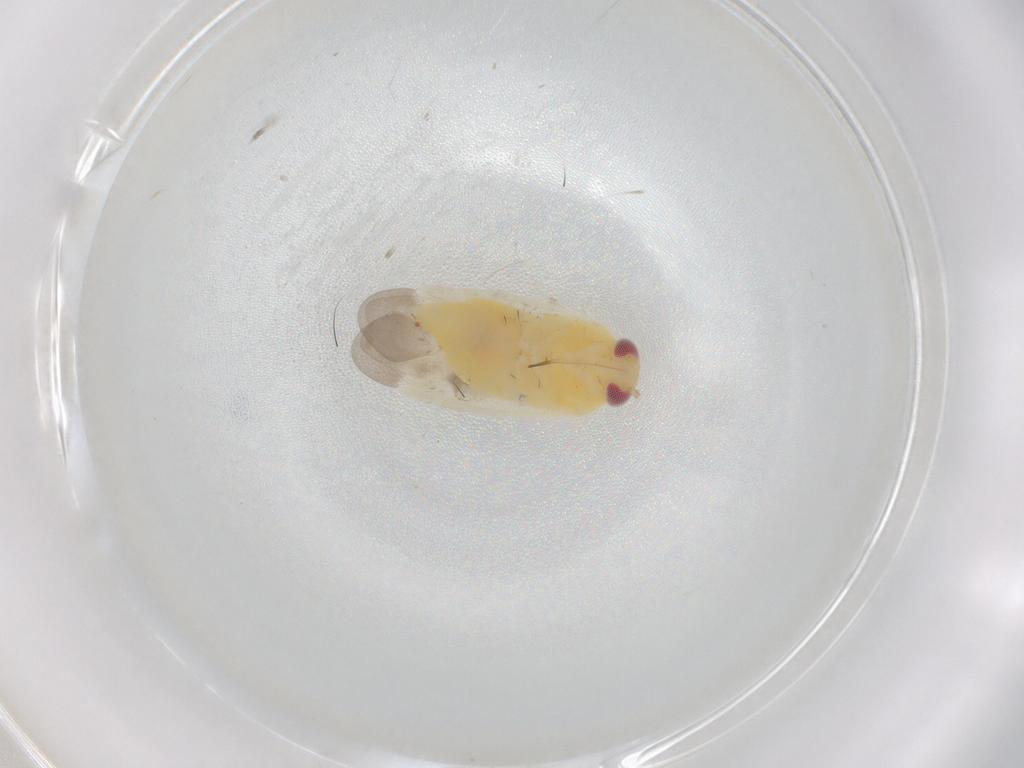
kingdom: Animalia
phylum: Arthropoda
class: Insecta
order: Hemiptera
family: Miridae
